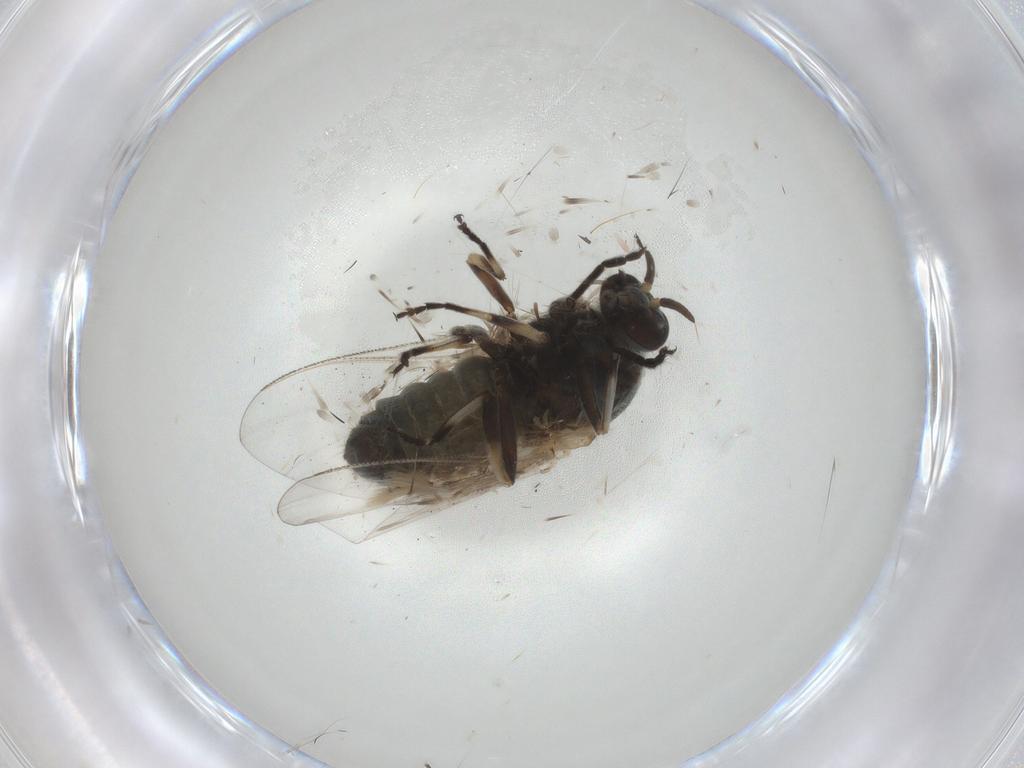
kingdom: Animalia
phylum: Arthropoda
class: Insecta
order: Diptera
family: Simuliidae
